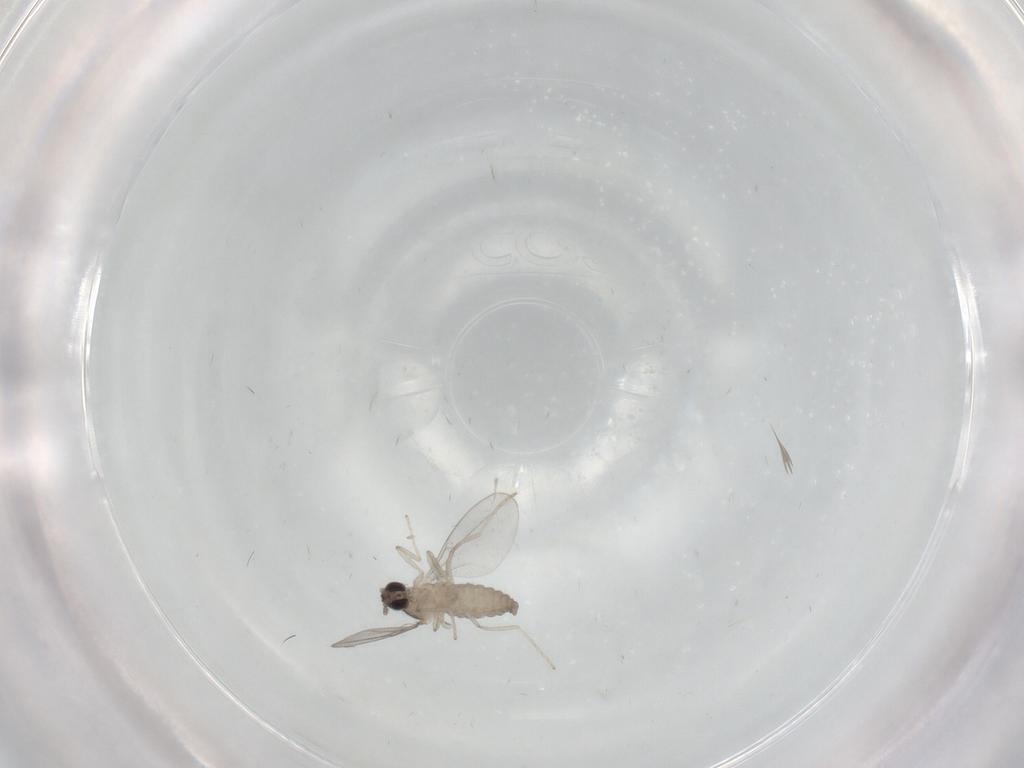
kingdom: Animalia
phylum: Arthropoda
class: Insecta
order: Diptera
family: Cecidomyiidae
